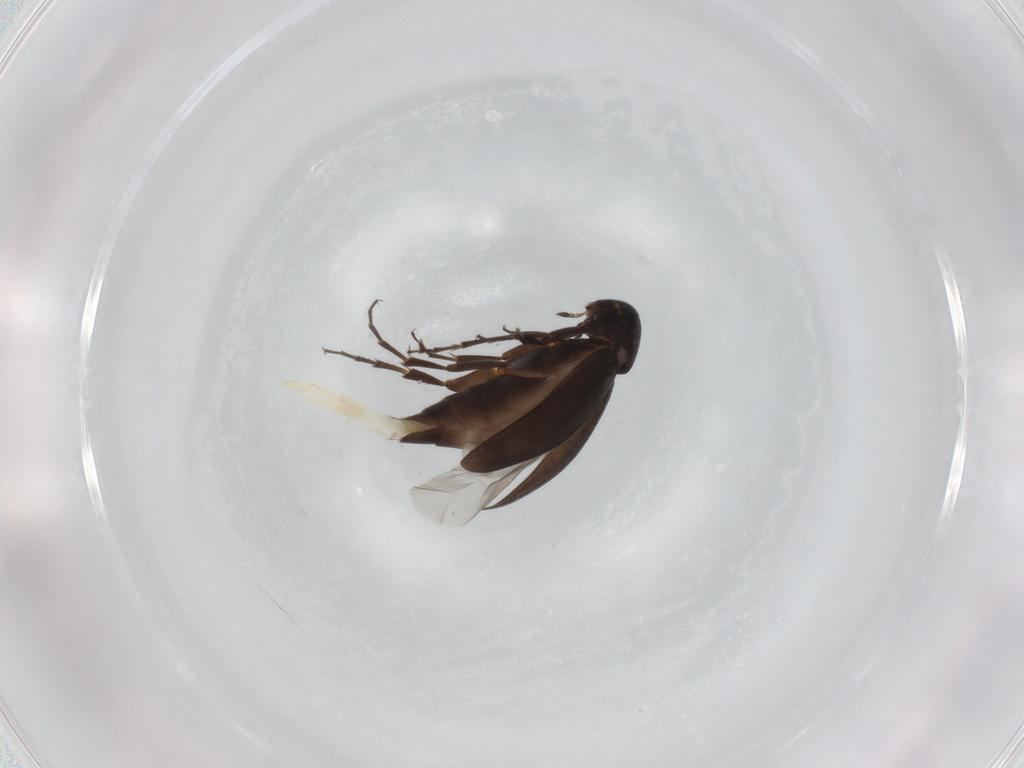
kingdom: Animalia
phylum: Arthropoda
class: Insecta
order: Coleoptera
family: Scraptiidae
